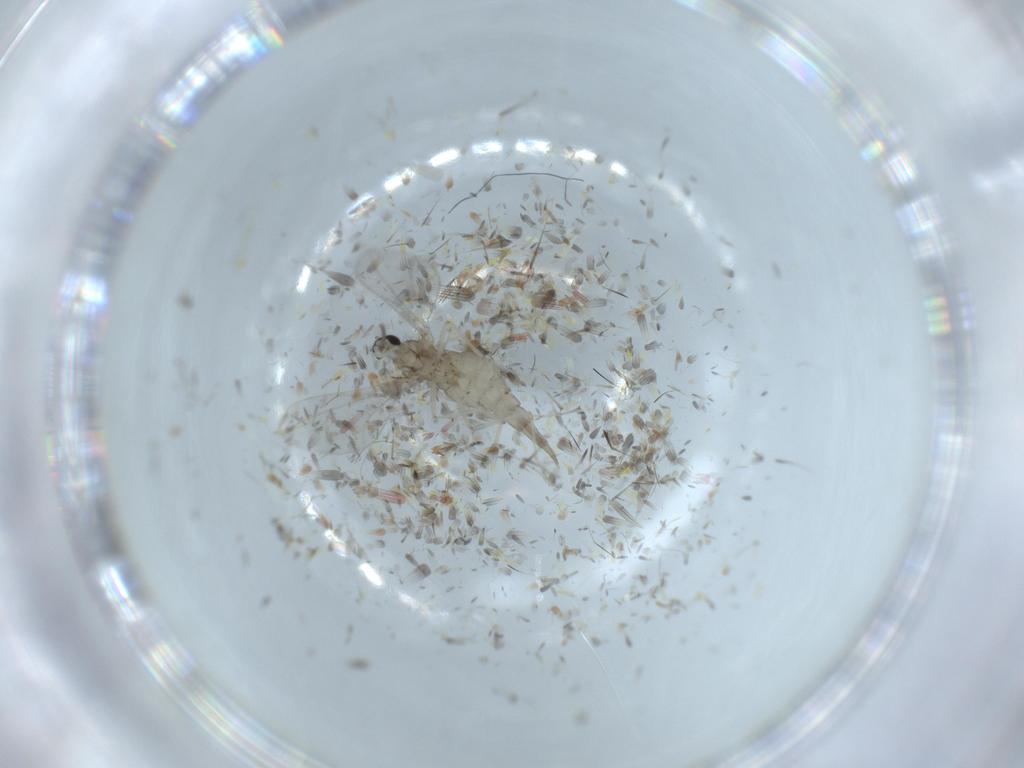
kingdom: Animalia
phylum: Arthropoda
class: Insecta
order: Diptera
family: Cecidomyiidae
